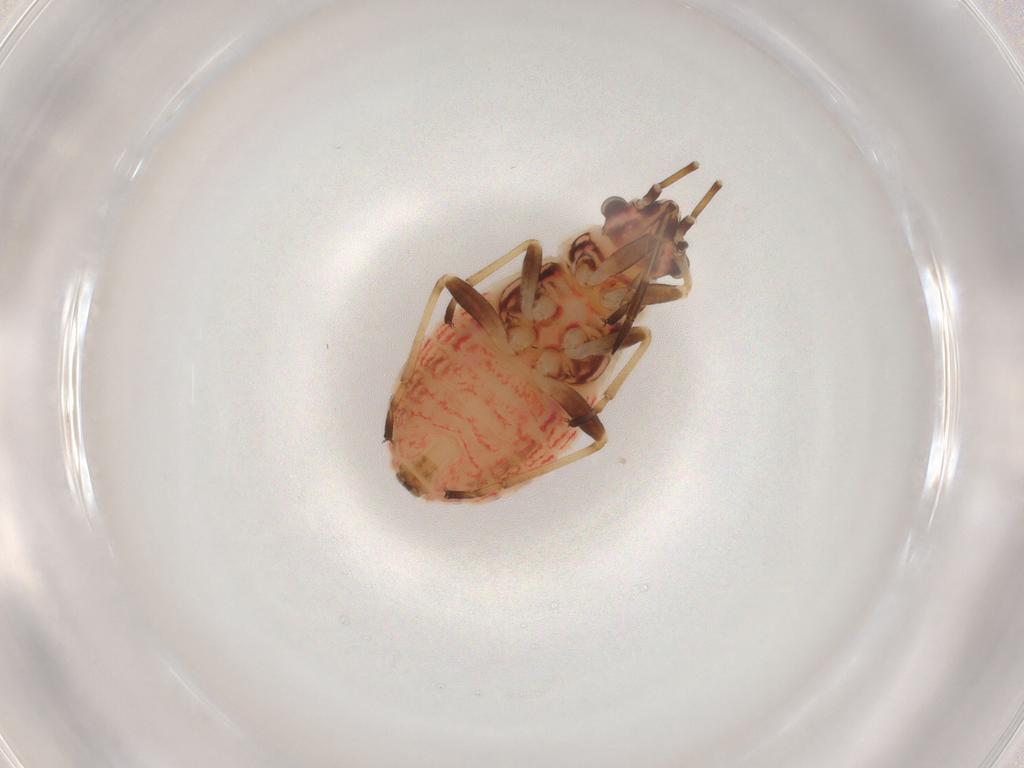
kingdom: Animalia
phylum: Arthropoda
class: Insecta
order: Hemiptera
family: Lygaeidae
